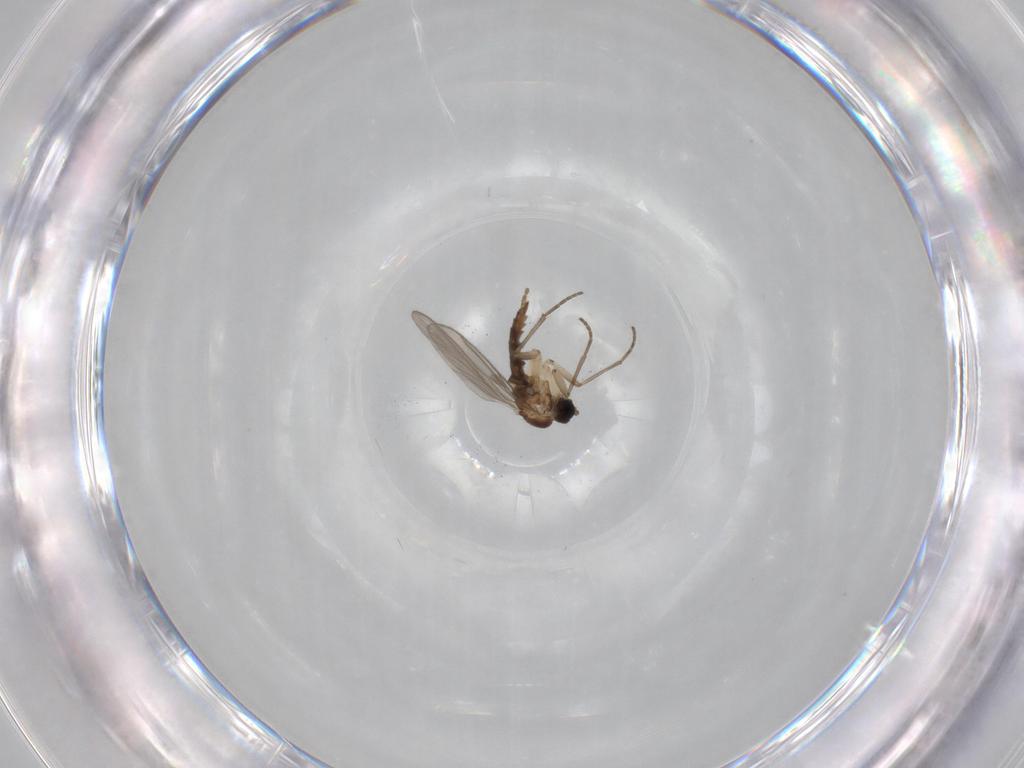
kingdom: Animalia
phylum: Arthropoda
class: Insecta
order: Diptera
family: Sciaridae
